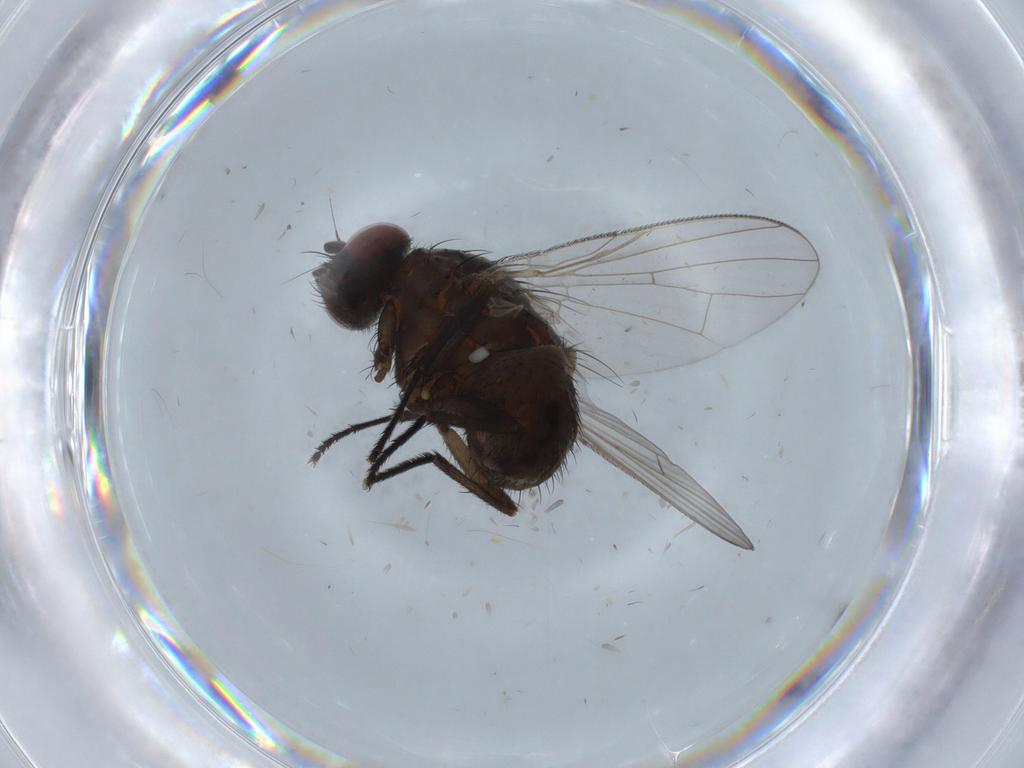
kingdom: Animalia
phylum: Arthropoda
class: Insecta
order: Diptera
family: Muscidae
